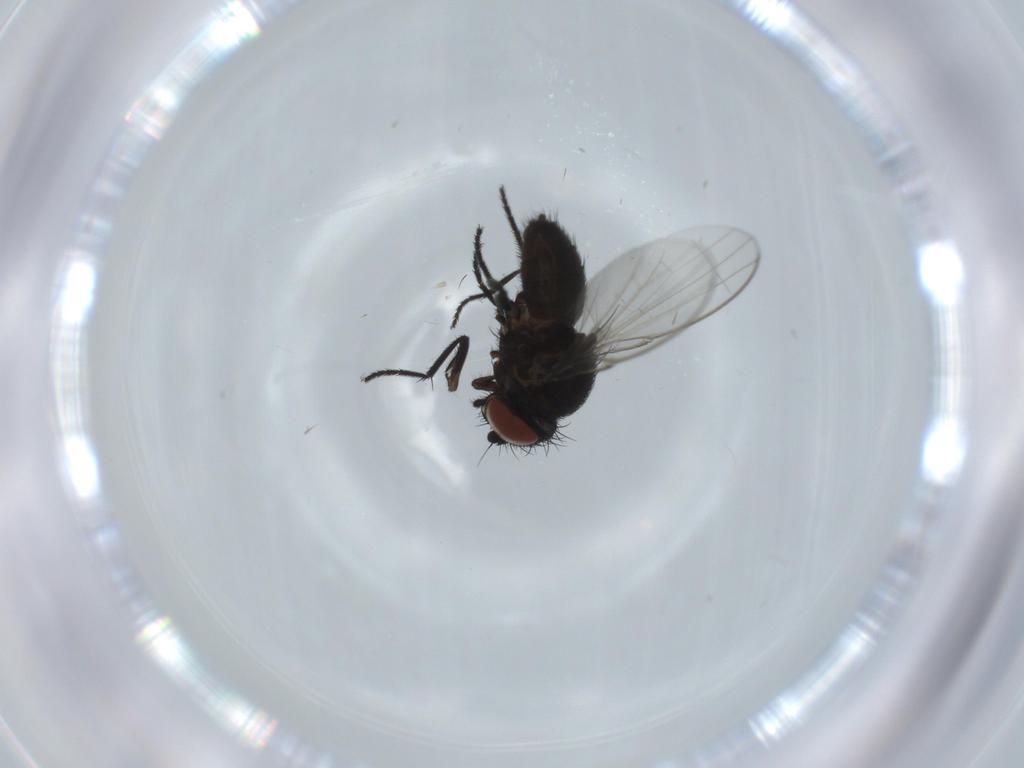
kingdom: Animalia
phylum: Arthropoda
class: Insecta
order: Diptera
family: Milichiidae
